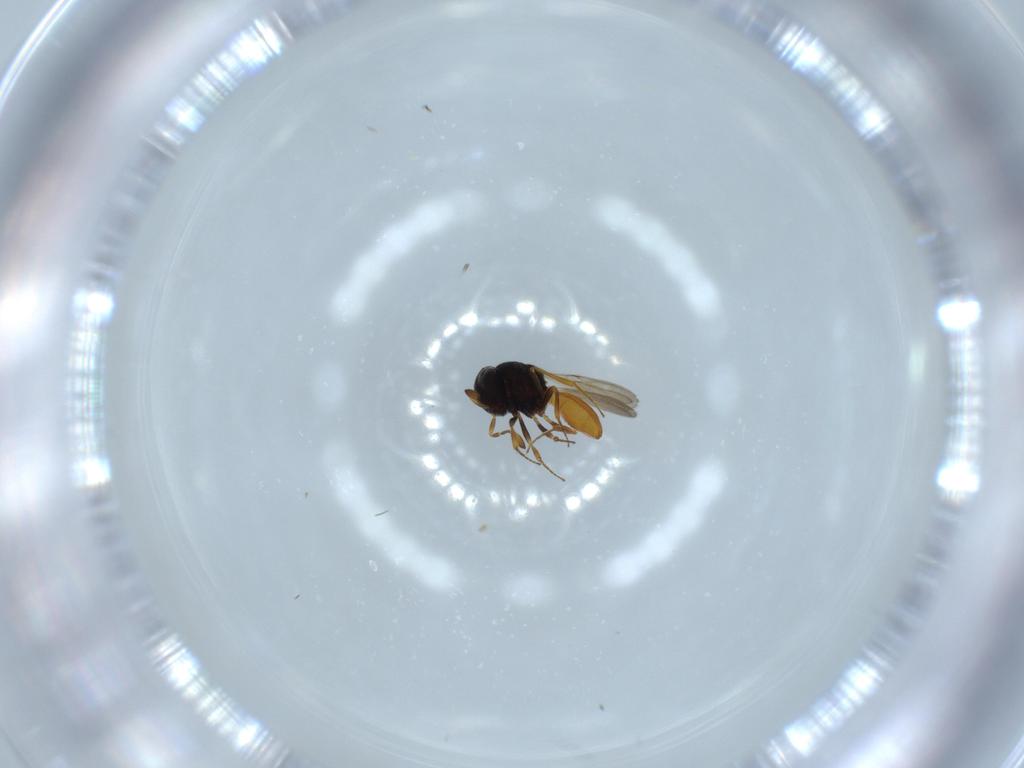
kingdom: Animalia
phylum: Arthropoda
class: Insecta
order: Hymenoptera
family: Scelionidae
